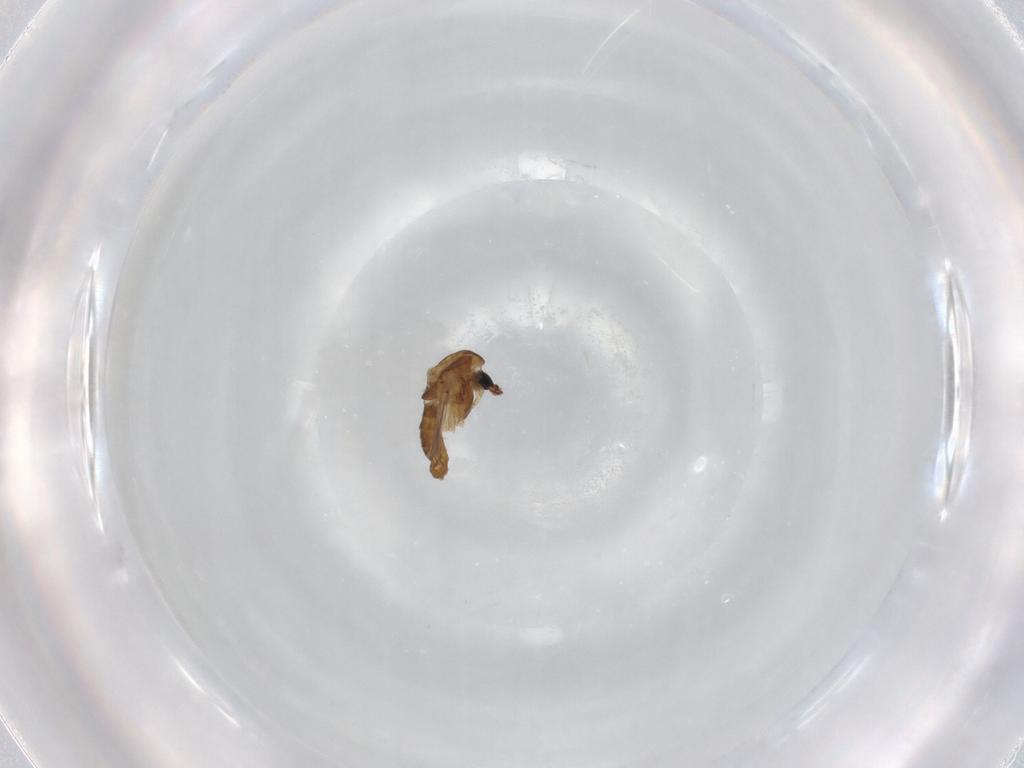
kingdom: Animalia
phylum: Arthropoda
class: Insecta
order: Diptera
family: Chironomidae
